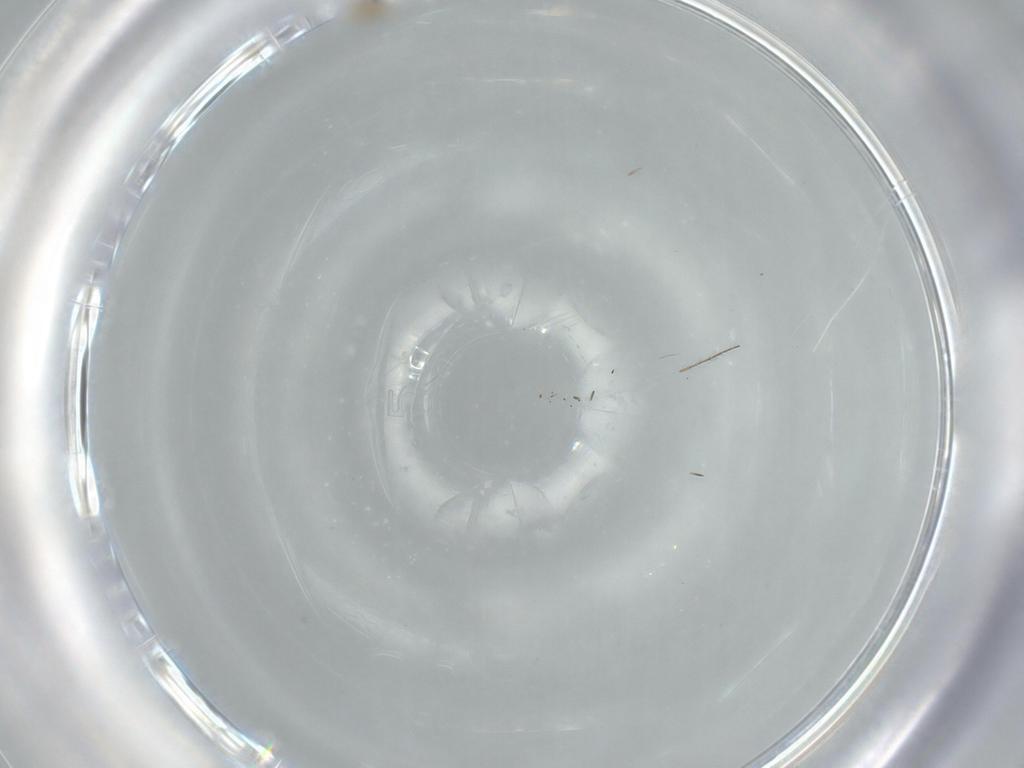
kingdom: Animalia
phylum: Arthropoda
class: Insecta
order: Diptera
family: Cecidomyiidae
